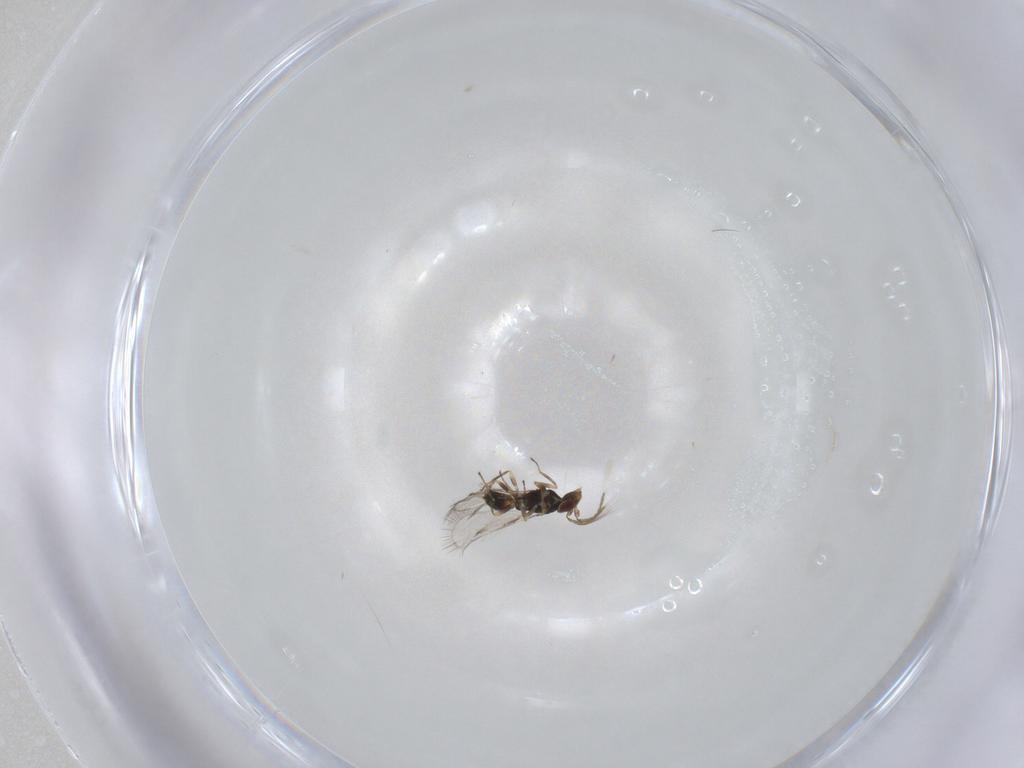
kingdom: Animalia
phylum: Arthropoda
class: Insecta
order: Hymenoptera
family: Eulophidae
